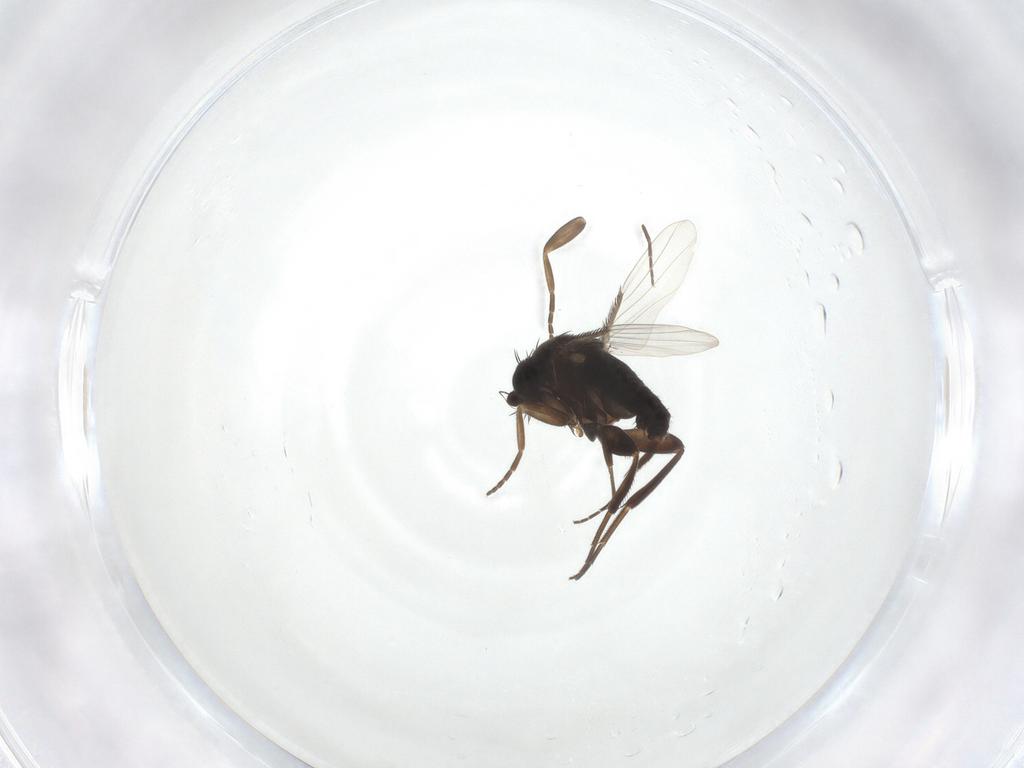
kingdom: Animalia
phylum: Arthropoda
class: Insecta
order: Diptera
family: Phoridae
